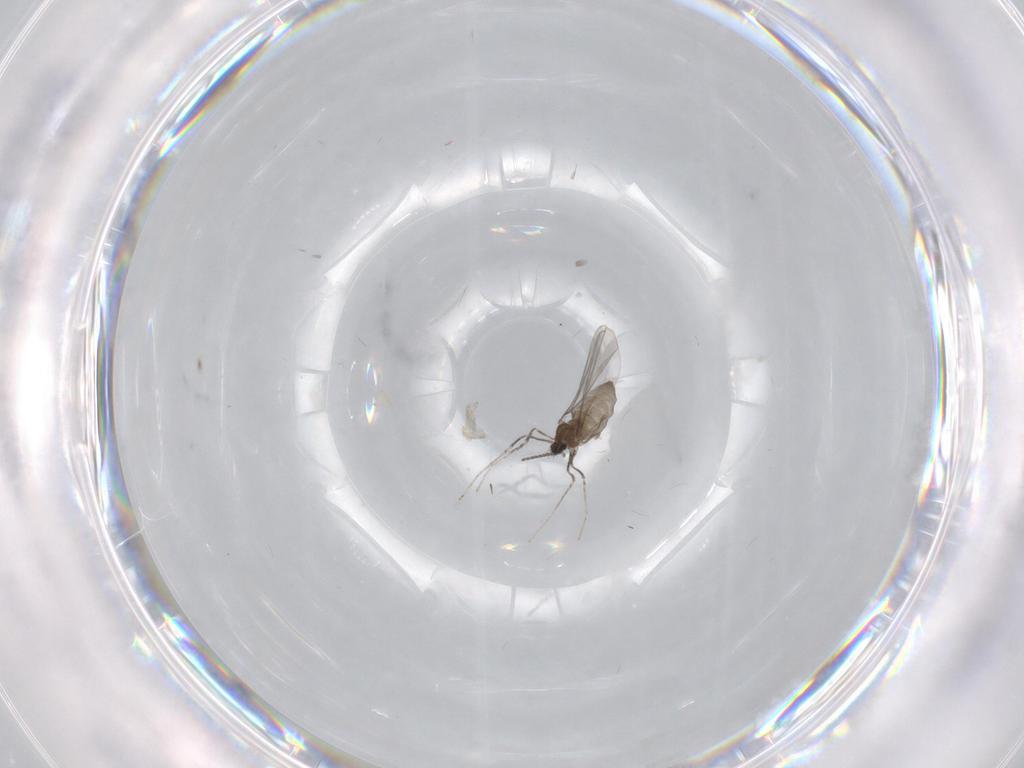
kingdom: Animalia
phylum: Arthropoda
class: Insecta
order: Diptera
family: Cecidomyiidae
